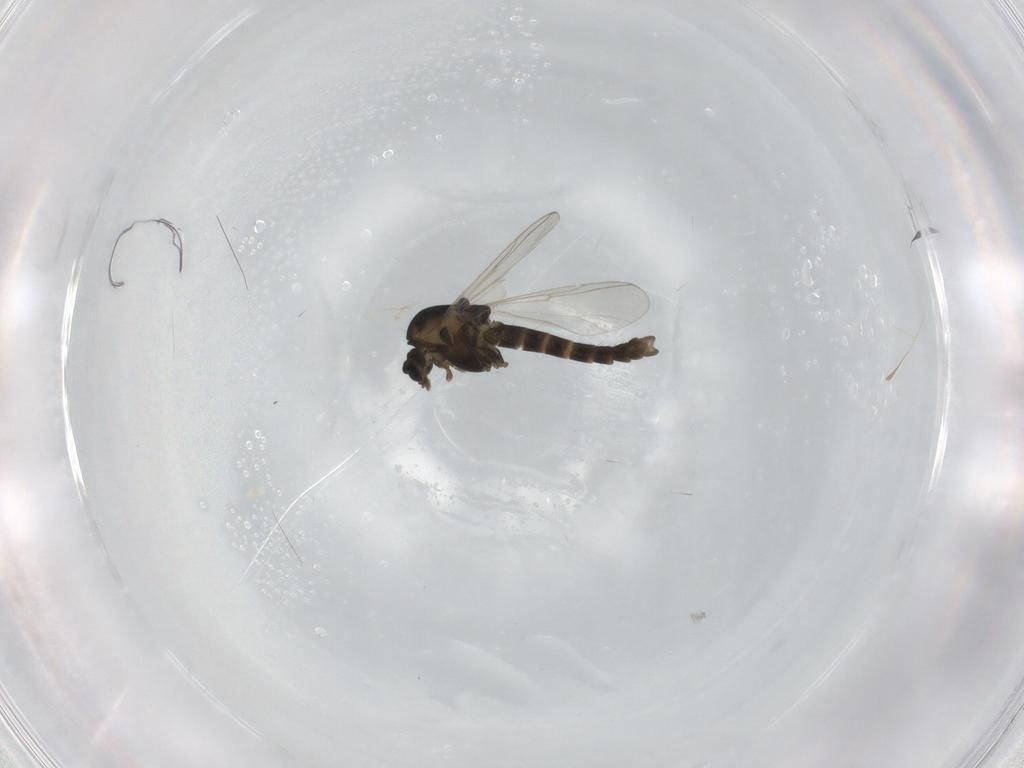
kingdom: Animalia
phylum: Arthropoda
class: Insecta
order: Diptera
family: Chironomidae
